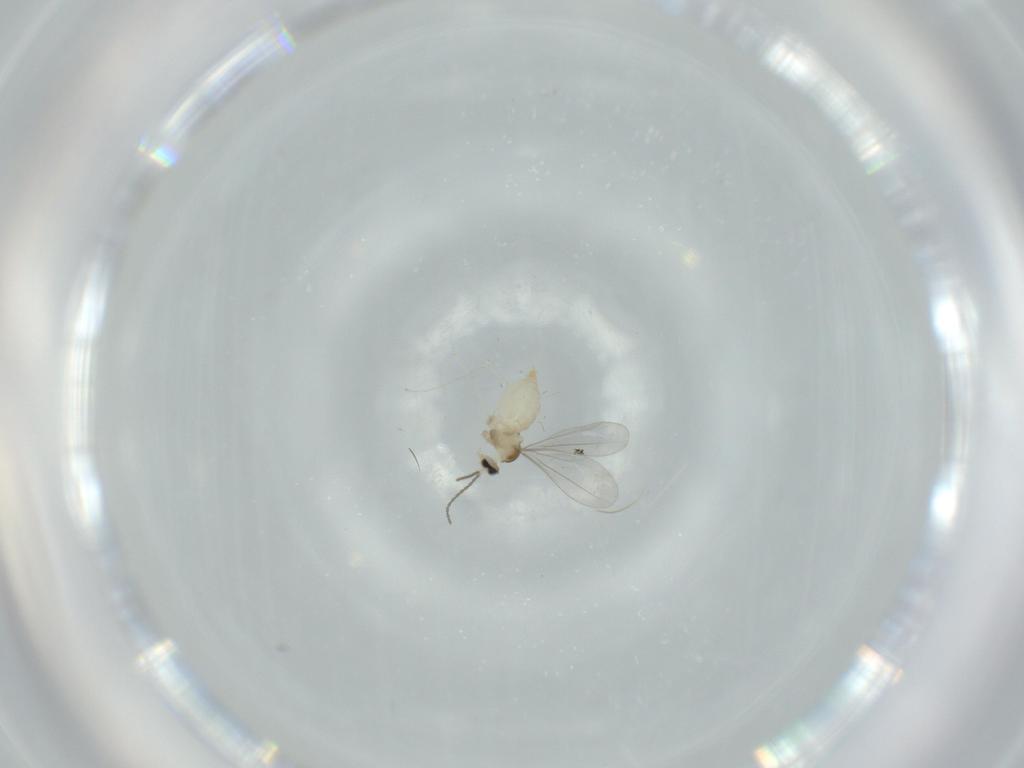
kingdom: Animalia
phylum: Arthropoda
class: Insecta
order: Diptera
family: Cecidomyiidae
